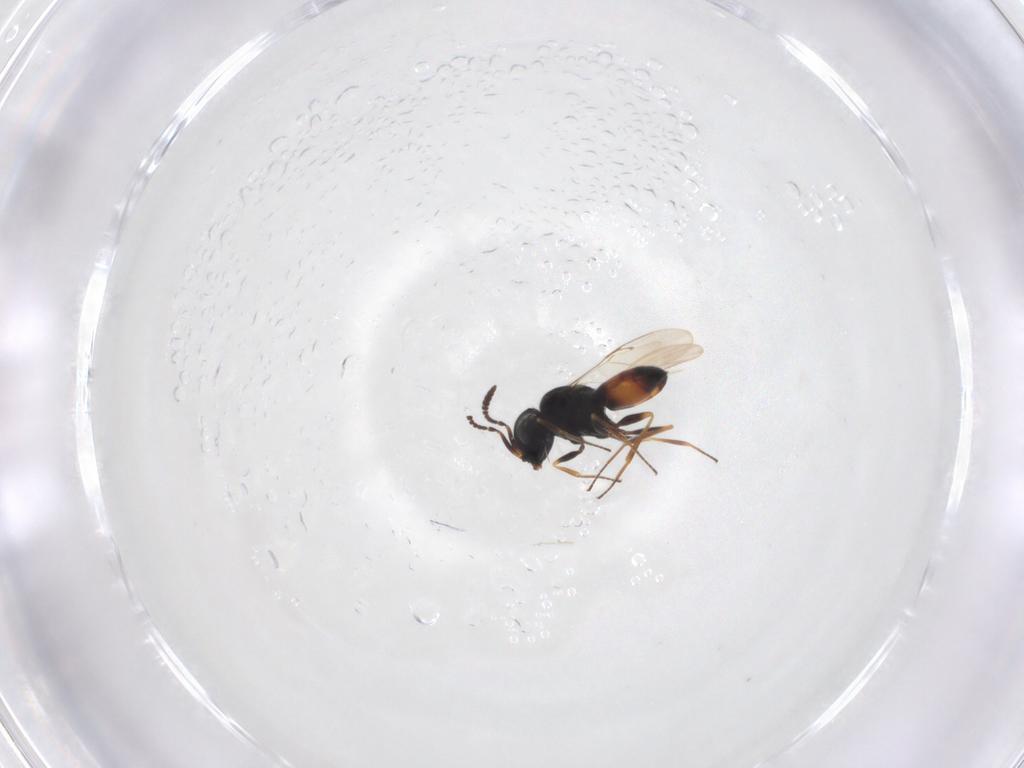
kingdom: Animalia
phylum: Arthropoda
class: Insecta
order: Hymenoptera
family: Scelionidae
